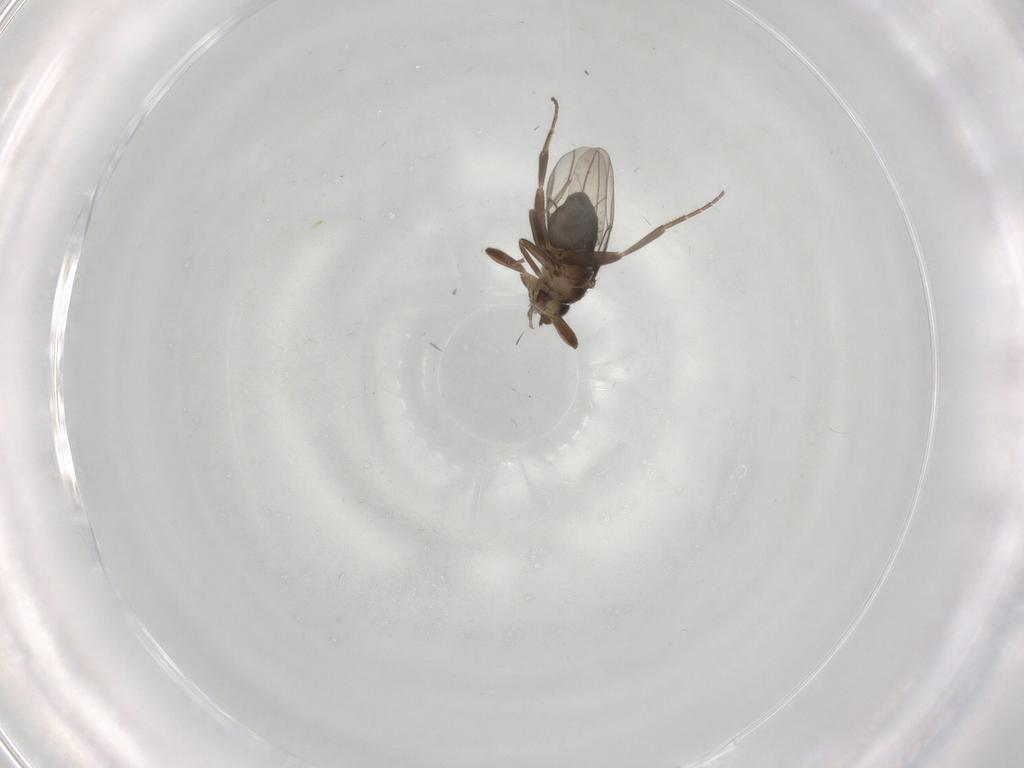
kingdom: Animalia
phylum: Arthropoda
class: Insecta
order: Diptera
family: Phoridae
